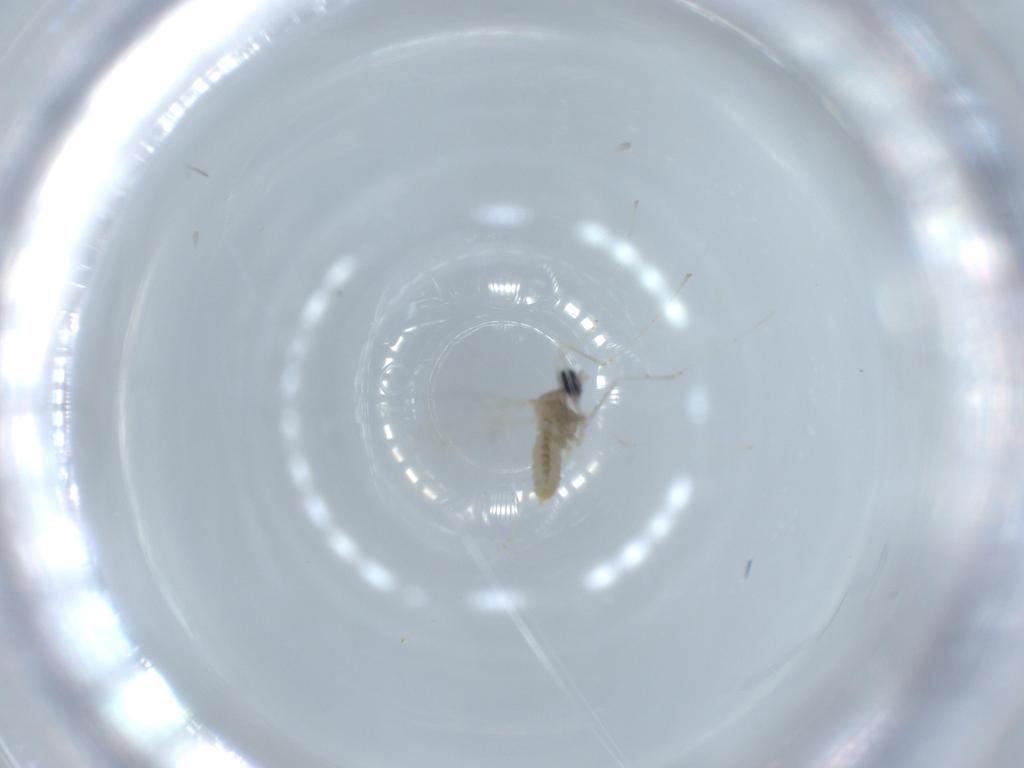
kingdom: Animalia
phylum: Arthropoda
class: Insecta
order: Diptera
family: Cecidomyiidae
